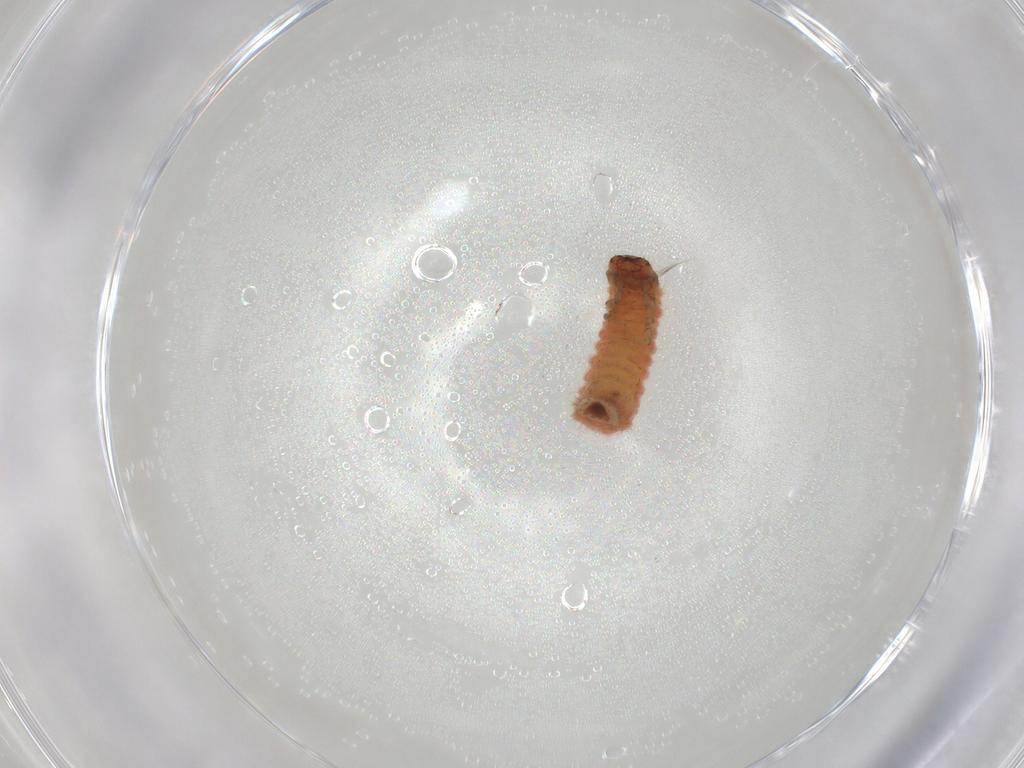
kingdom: Animalia
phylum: Arthropoda
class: Insecta
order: Coleoptera
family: Cleridae
